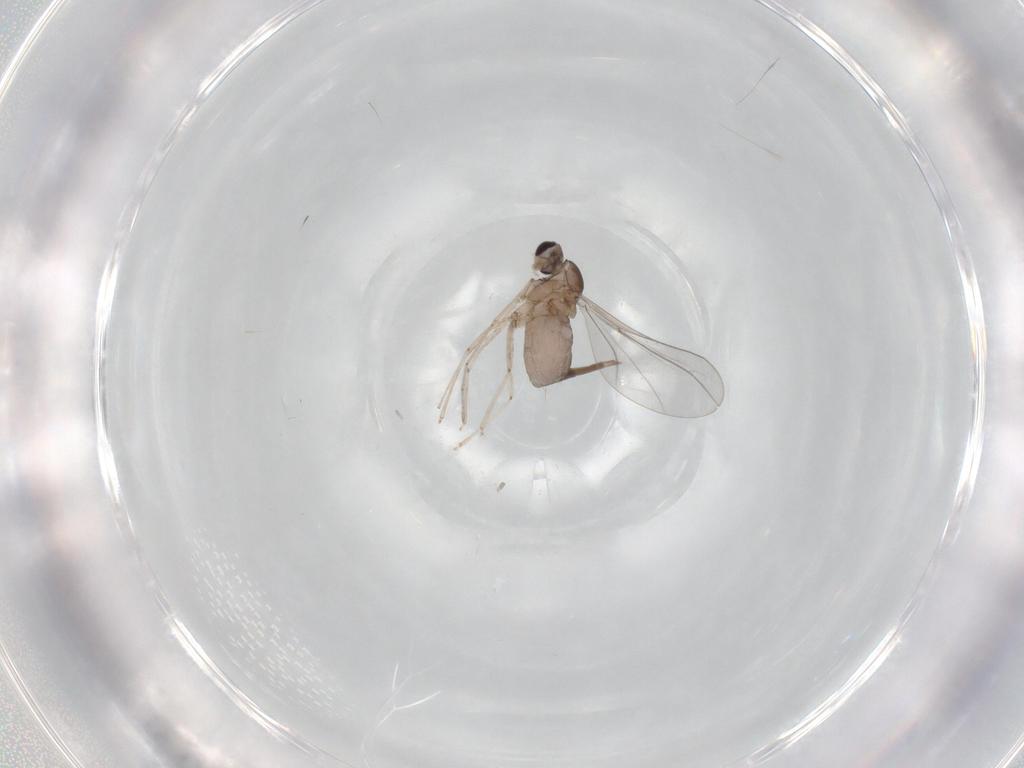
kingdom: Animalia
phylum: Arthropoda
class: Insecta
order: Diptera
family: Cecidomyiidae
